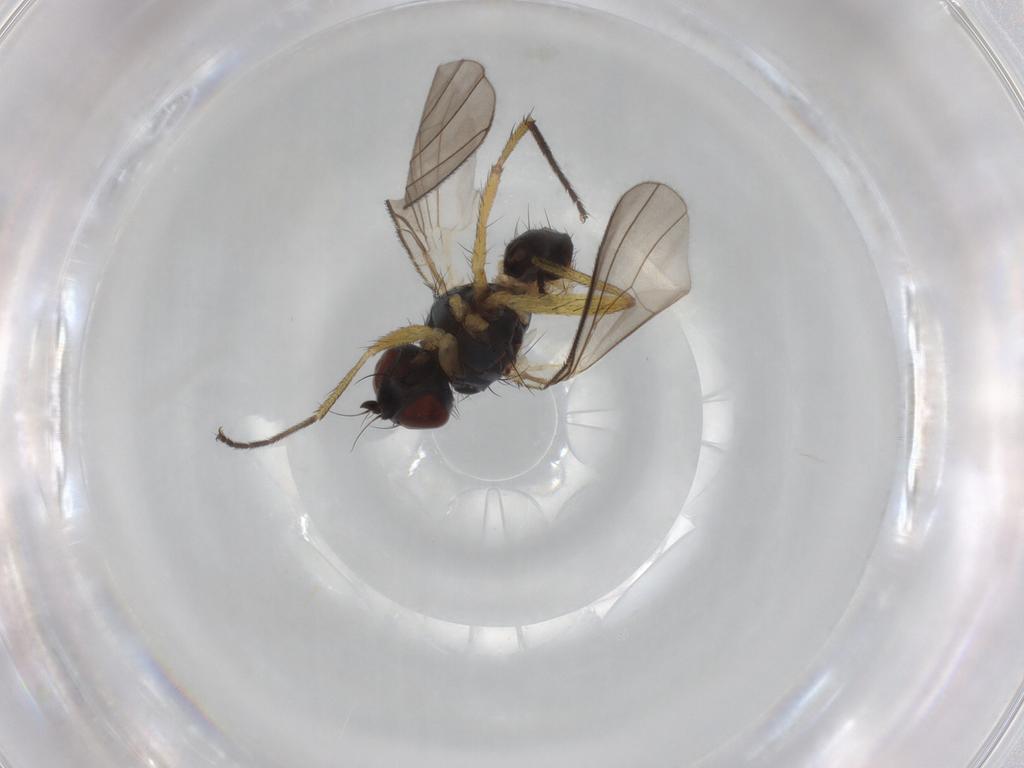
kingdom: Animalia
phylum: Arthropoda
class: Insecta
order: Diptera
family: Muscidae
